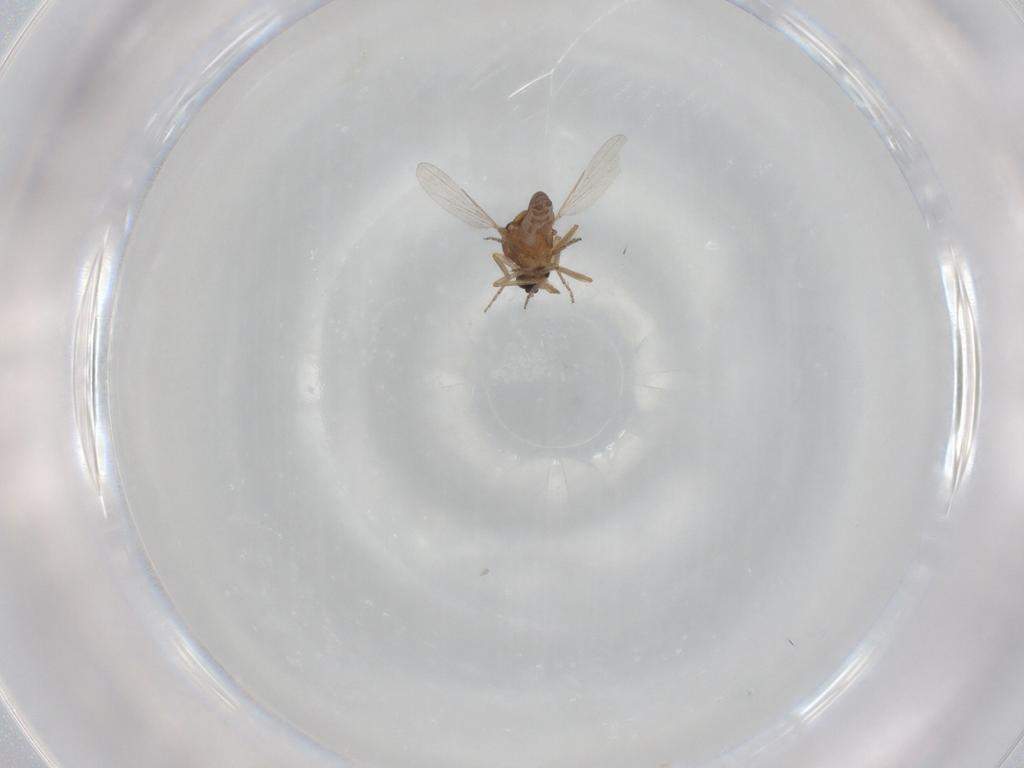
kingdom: Animalia
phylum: Arthropoda
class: Insecta
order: Diptera
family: Ceratopogonidae
